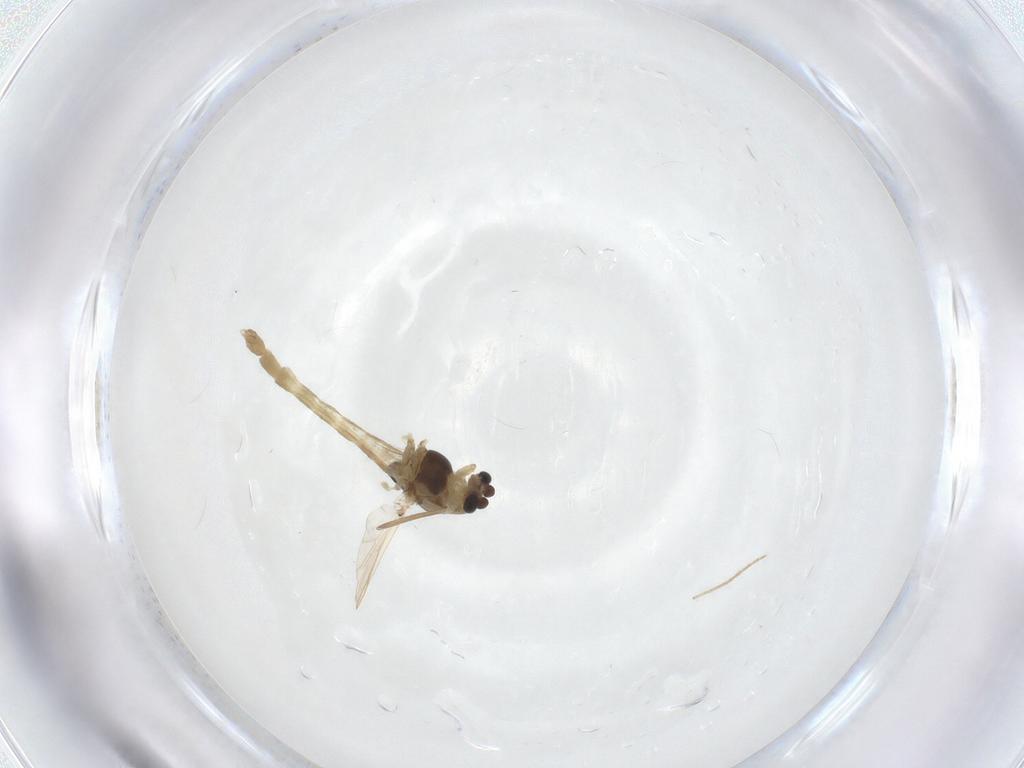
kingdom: Animalia
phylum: Arthropoda
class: Insecta
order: Diptera
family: Chironomidae
